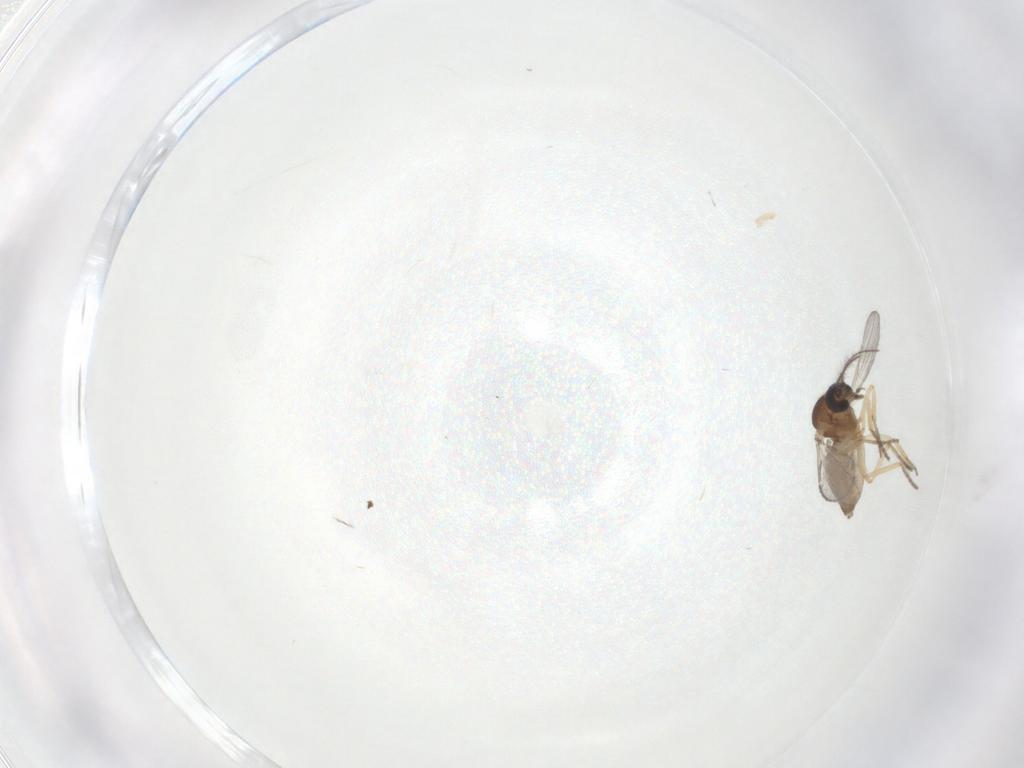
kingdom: Animalia
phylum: Arthropoda
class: Insecta
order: Diptera
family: Ceratopogonidae
